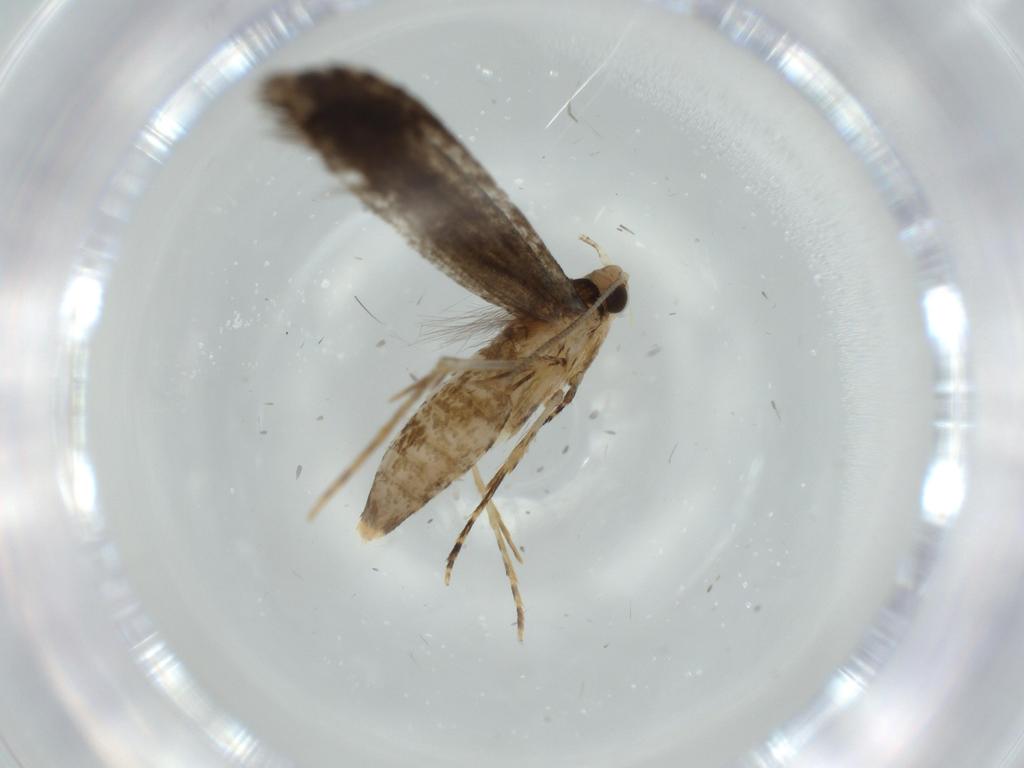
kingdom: Animalia
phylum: Arthropoda
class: Insecta
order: Lepidoptera
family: Meessiidae
